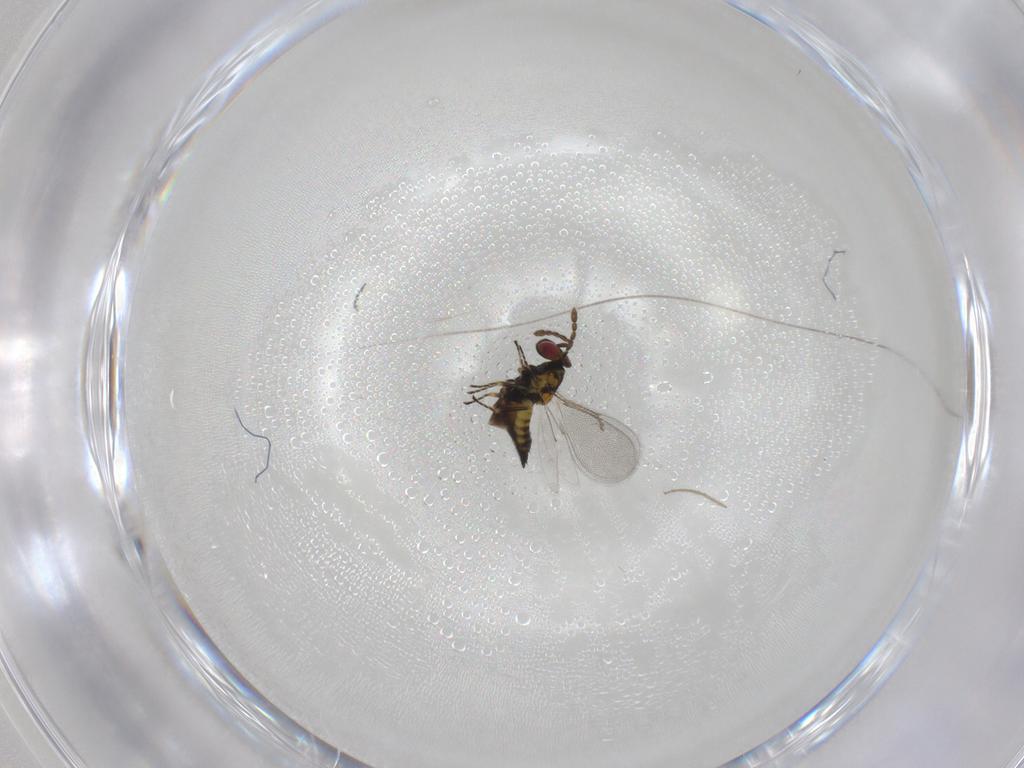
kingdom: Animalia
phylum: Arthropoda
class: Insecta
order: Hymenoptera
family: Eulophidae
